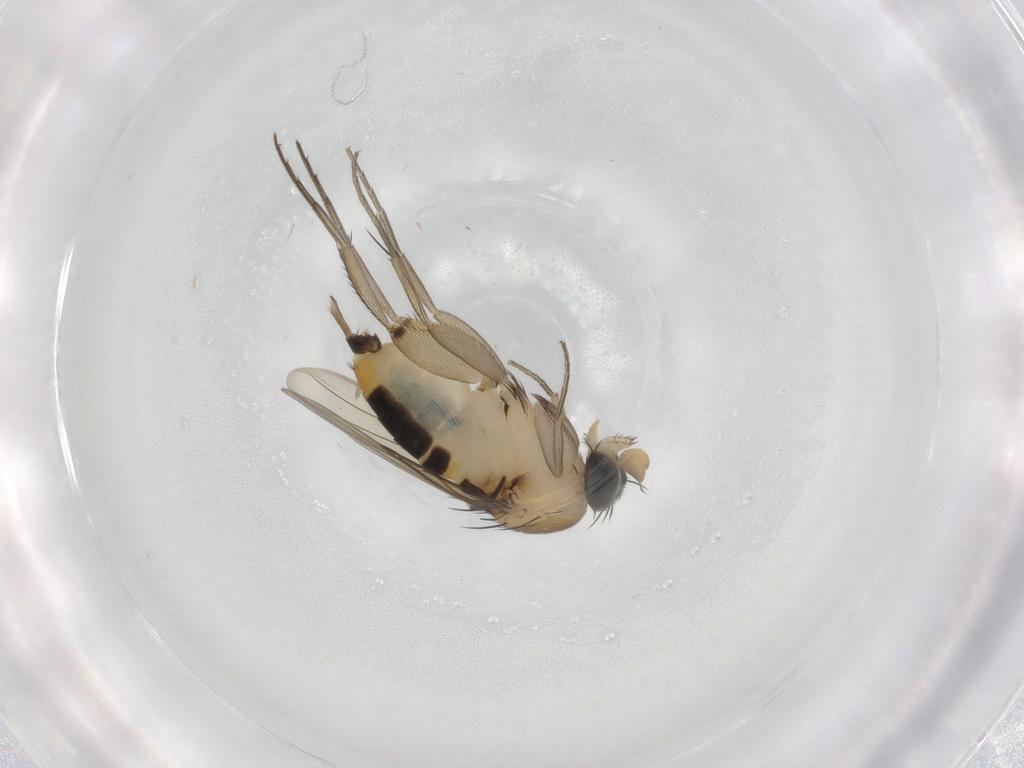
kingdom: Animalia
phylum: Arthropoda
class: Insecta
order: Diptera
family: Phoridae
